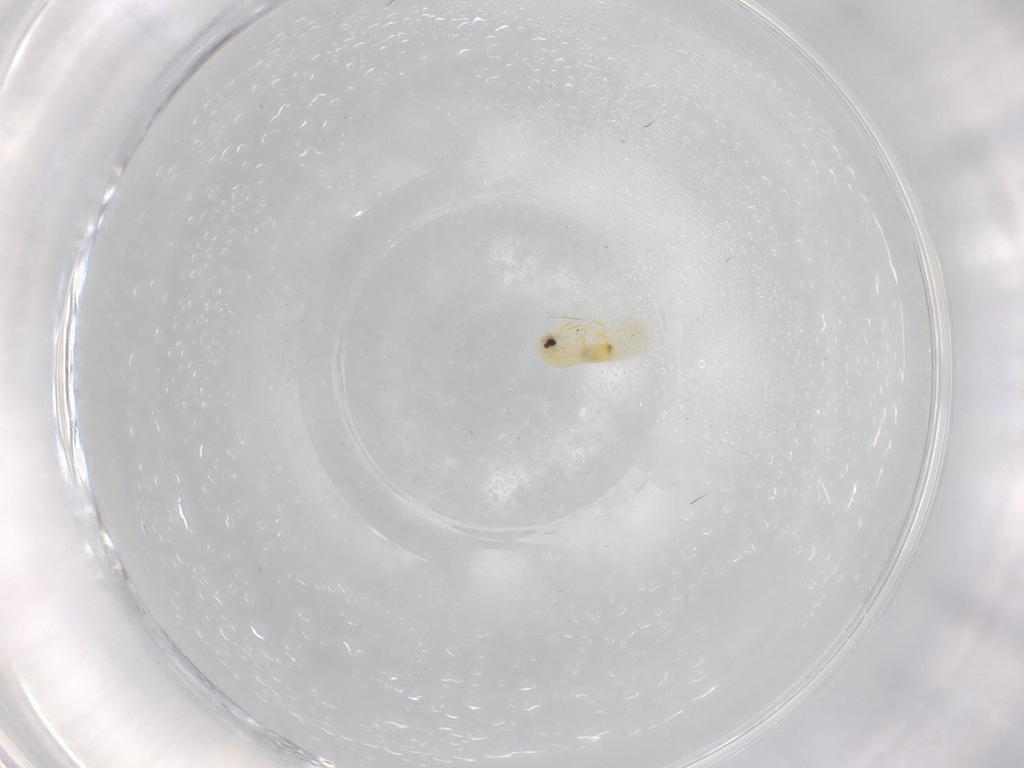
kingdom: Animalia
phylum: Arthropoda
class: Insecta
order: Hemiptera
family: Aleyrodidae
